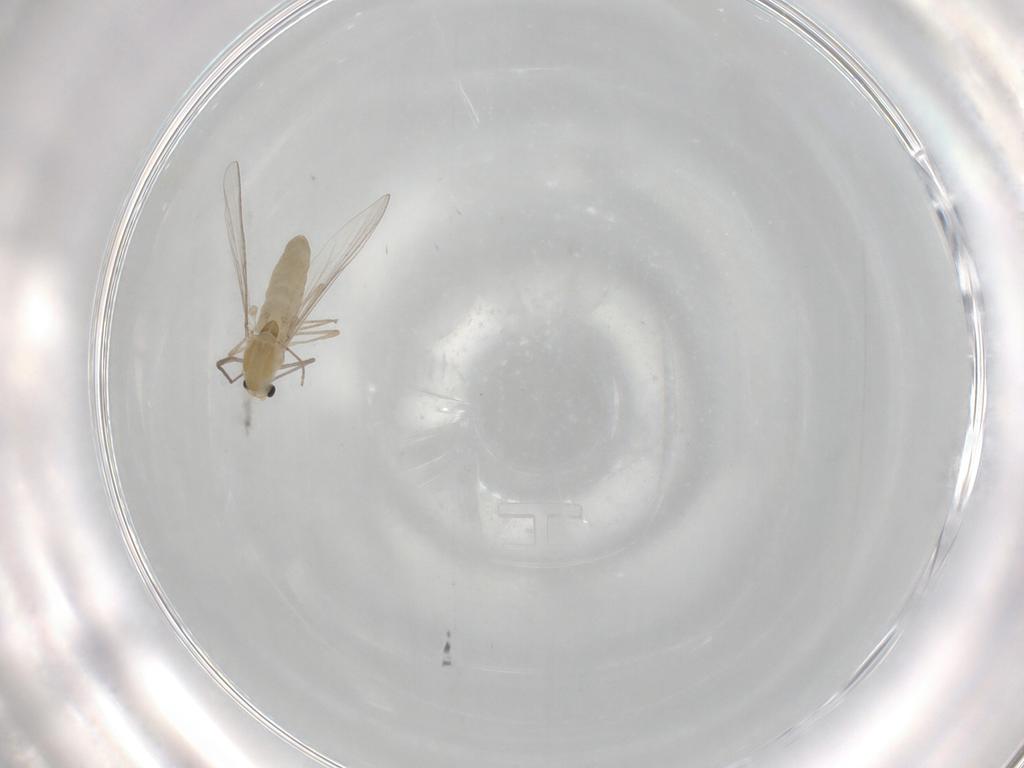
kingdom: Animalia
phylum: Arthropoda
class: Insecta
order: Diptera
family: Chironomidae
